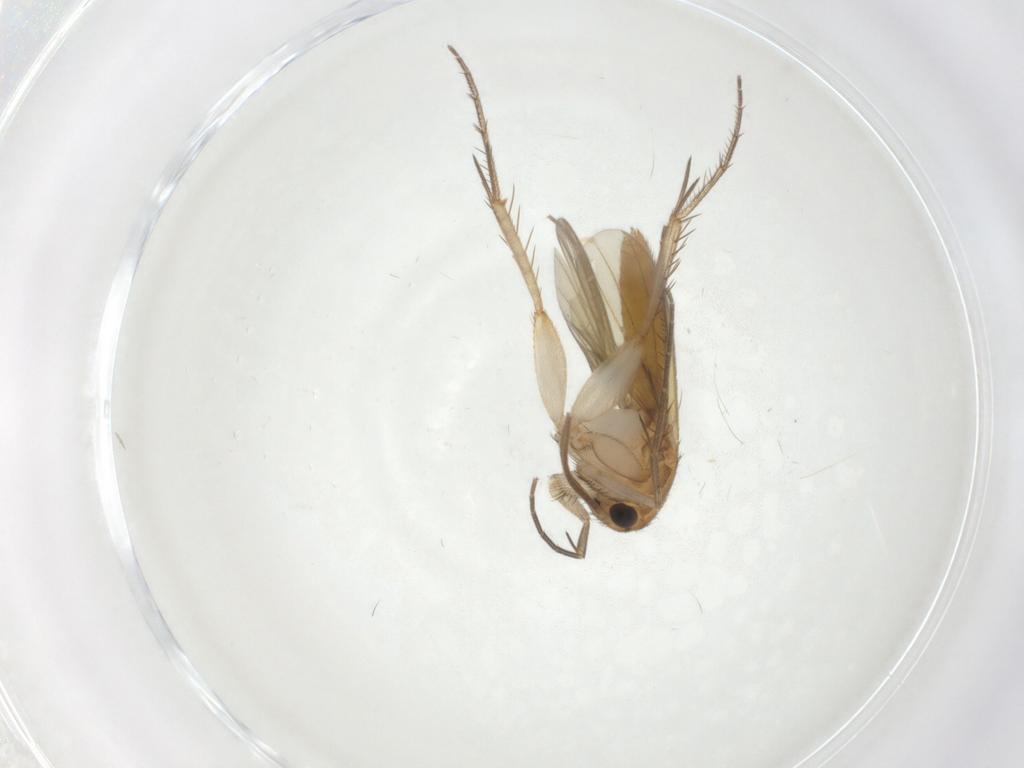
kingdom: Animalia
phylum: Arthropoda
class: Insecta
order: Diptera
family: Mycetophilidae
